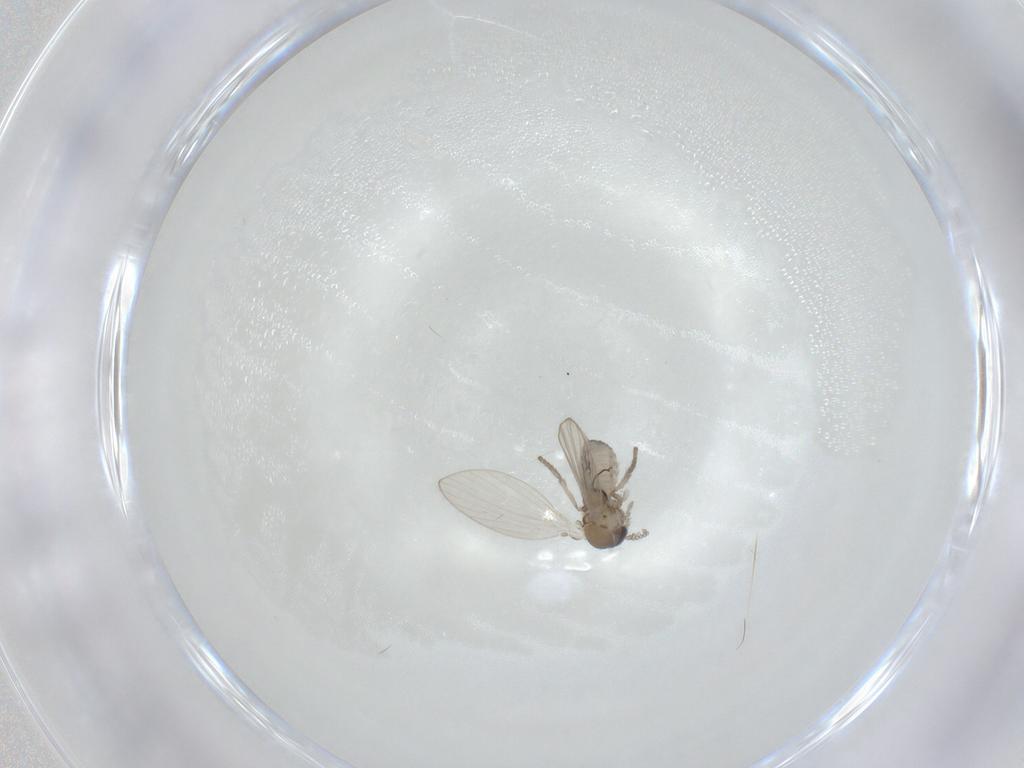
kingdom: Animalia
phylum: Arthropoda
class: Insecta
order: Diptera
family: Psychodidae
